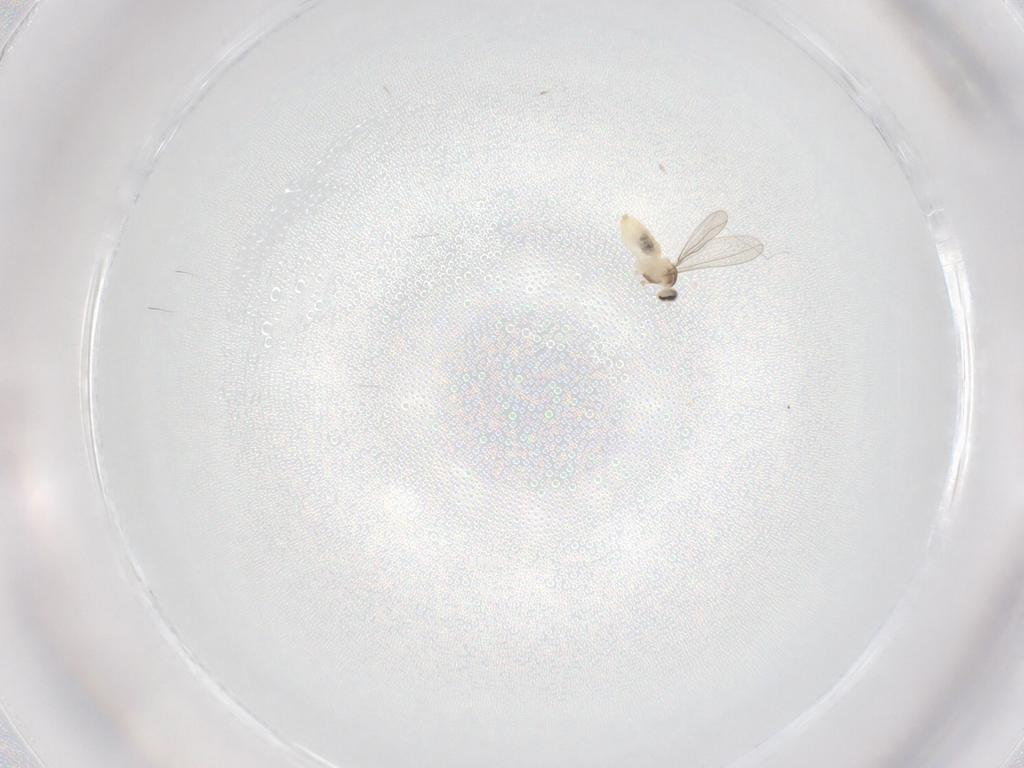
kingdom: Animalia
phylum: Arthropoda
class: Insecta
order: Diptera
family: Cecidomyiidae
